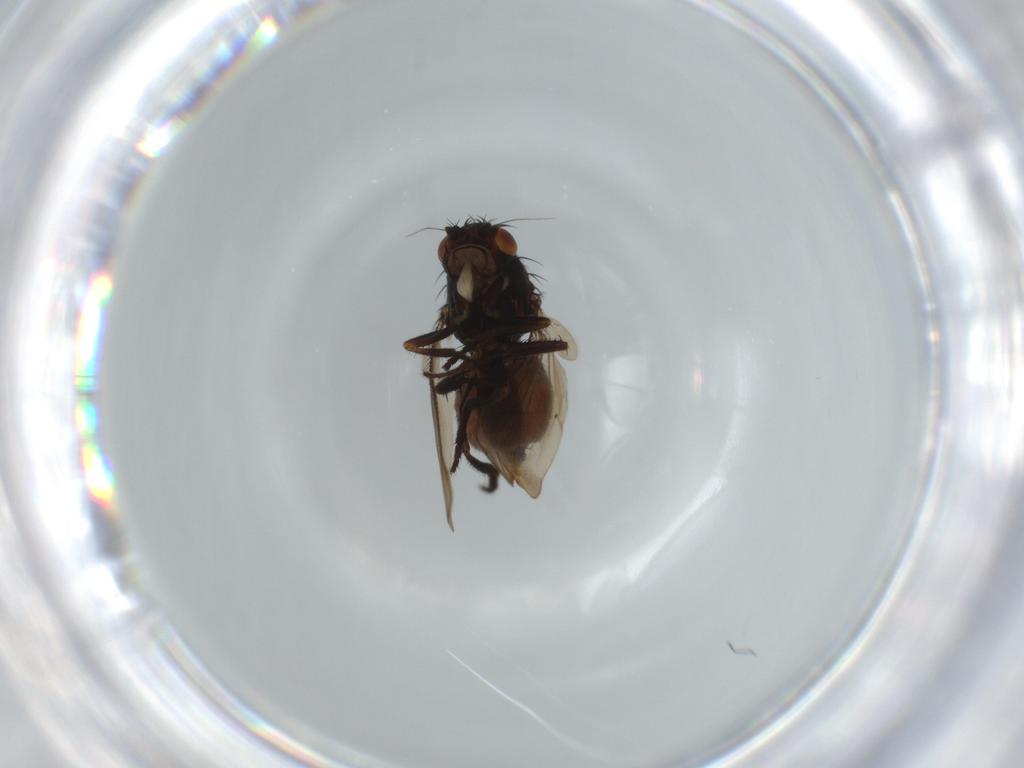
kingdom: Animalia
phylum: Arthropoda
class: Insecta
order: Diptera
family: Sphaeroceridae
